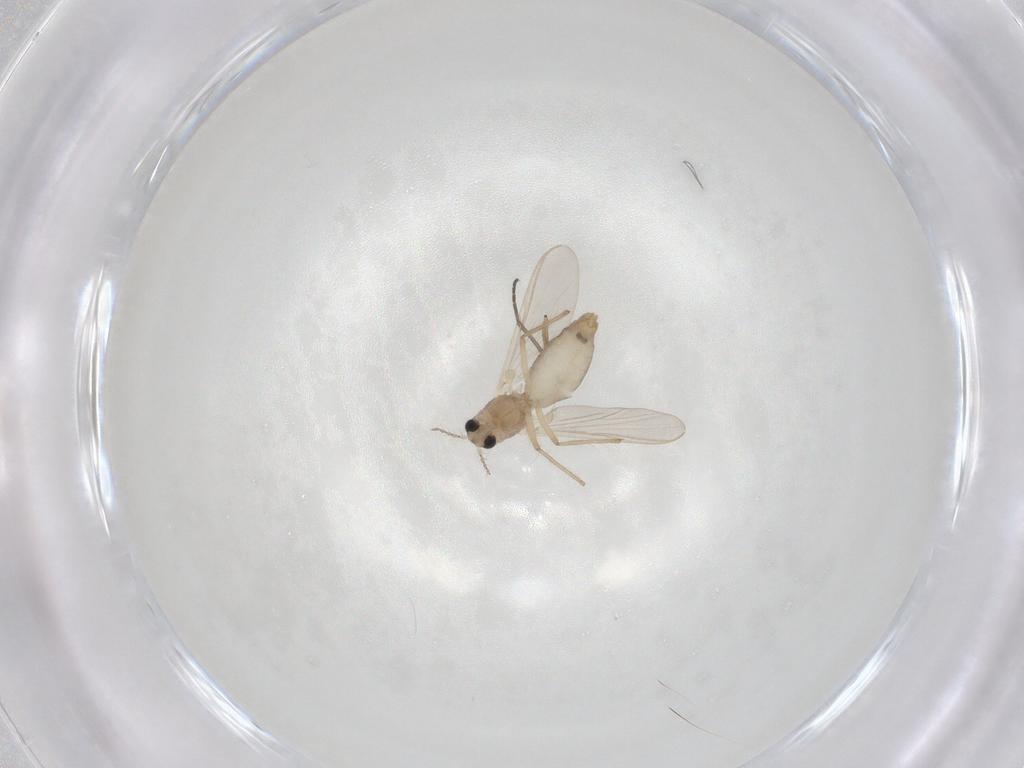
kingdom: Animalia
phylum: Arthropoda
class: Insecta
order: Diptera
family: Chironomidae
